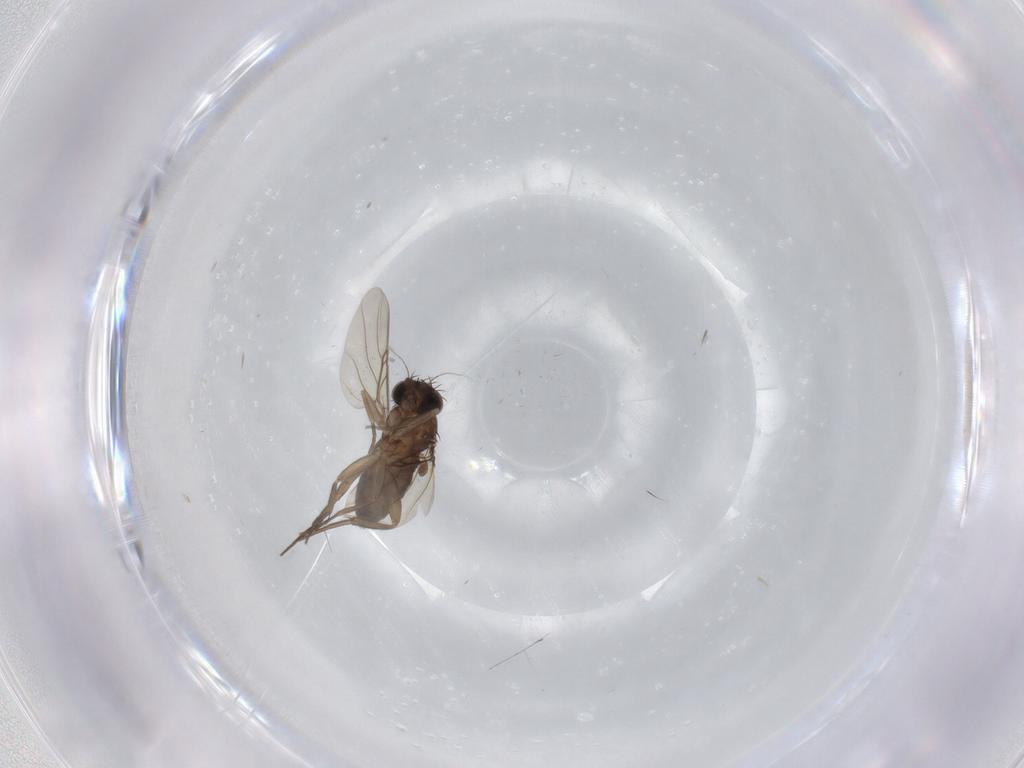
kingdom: Animalia
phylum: Arthropoda
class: Insecta
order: Diptera
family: Phoridae
